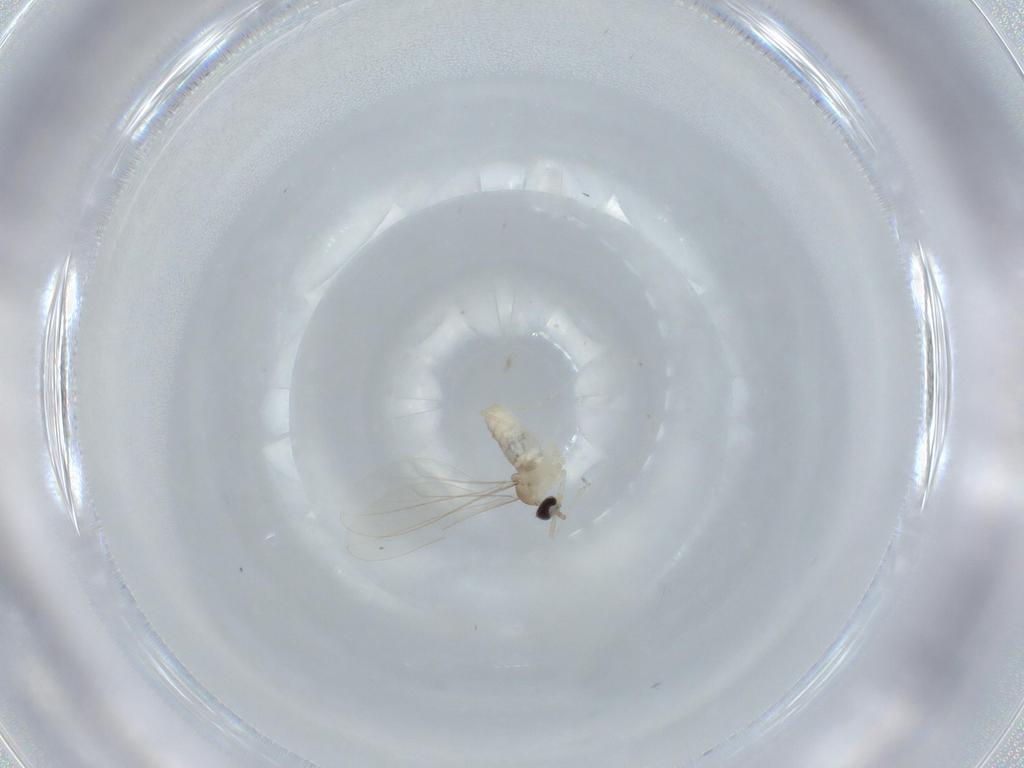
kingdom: Animalia
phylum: Arthropoda
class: Insecta
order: Diptera
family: Cecidomyiidae
